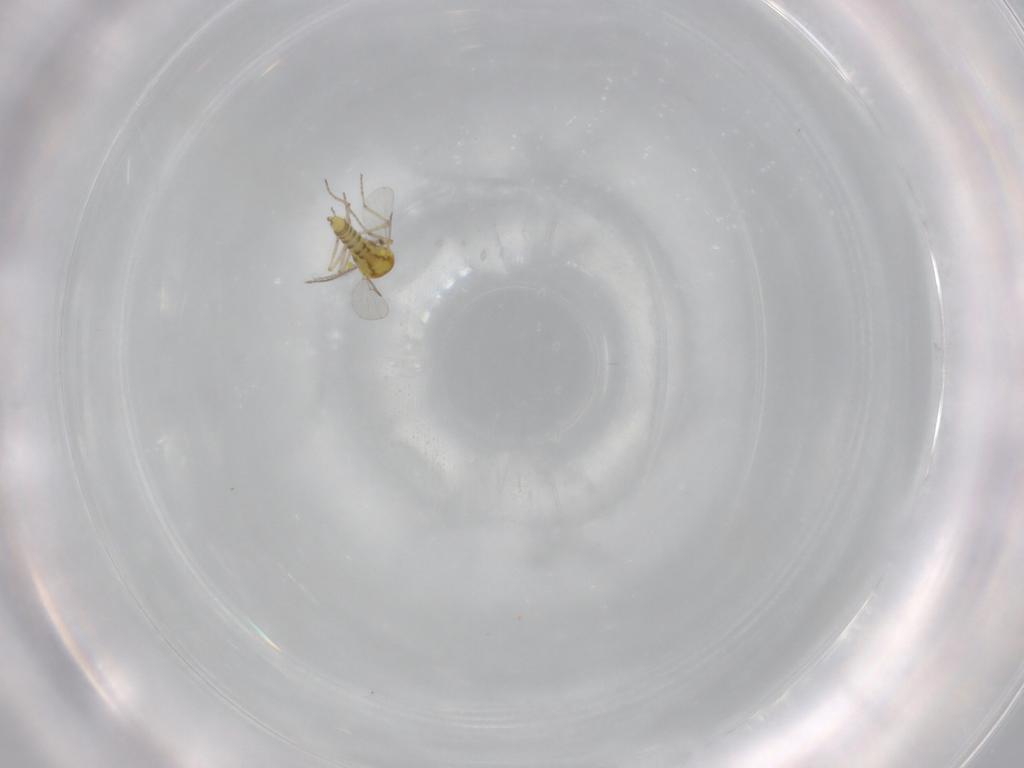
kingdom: Animalia
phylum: Arthropoda
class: Insecta
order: Diptera
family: Ceratopogonidae
